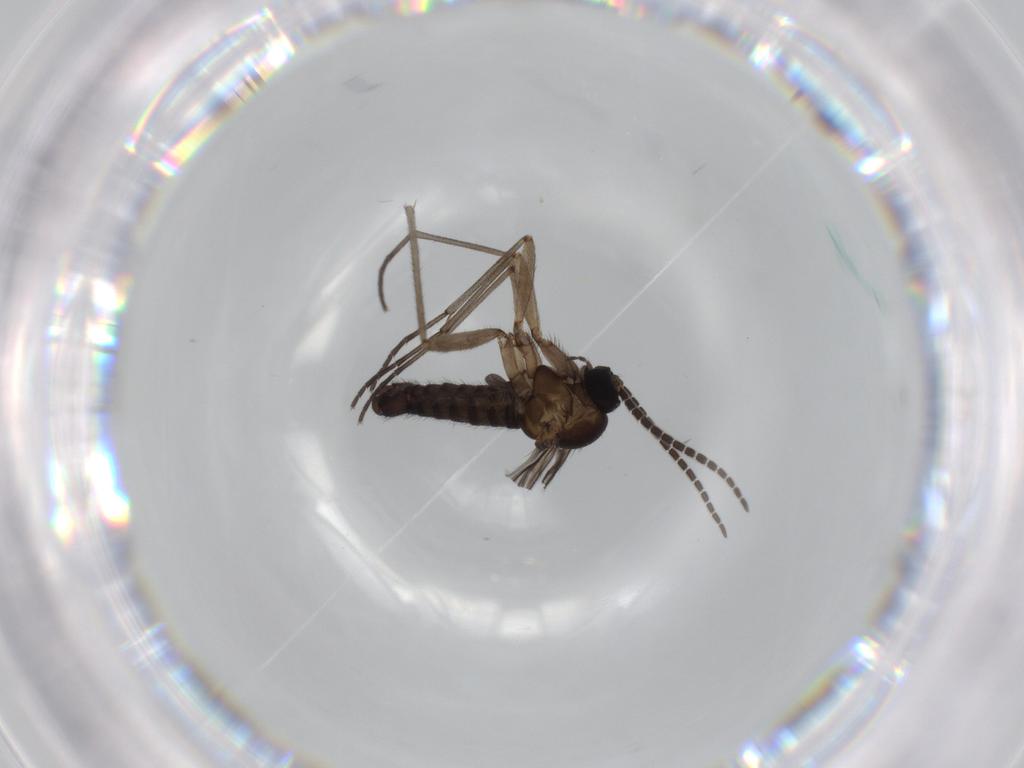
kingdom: Animalia
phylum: Arthropoda
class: Insecta
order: Diptera
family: Sciaridae
